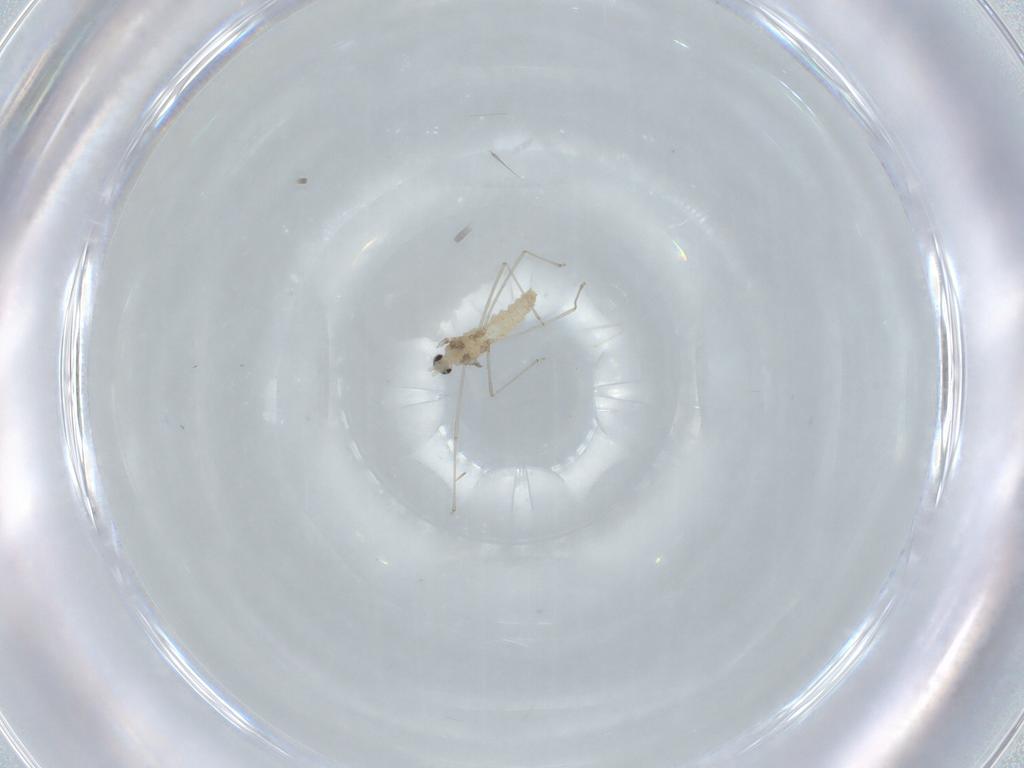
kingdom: Animalia
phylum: Arthropoda
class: Insecta
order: Diptera
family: Cecidomyiidae
